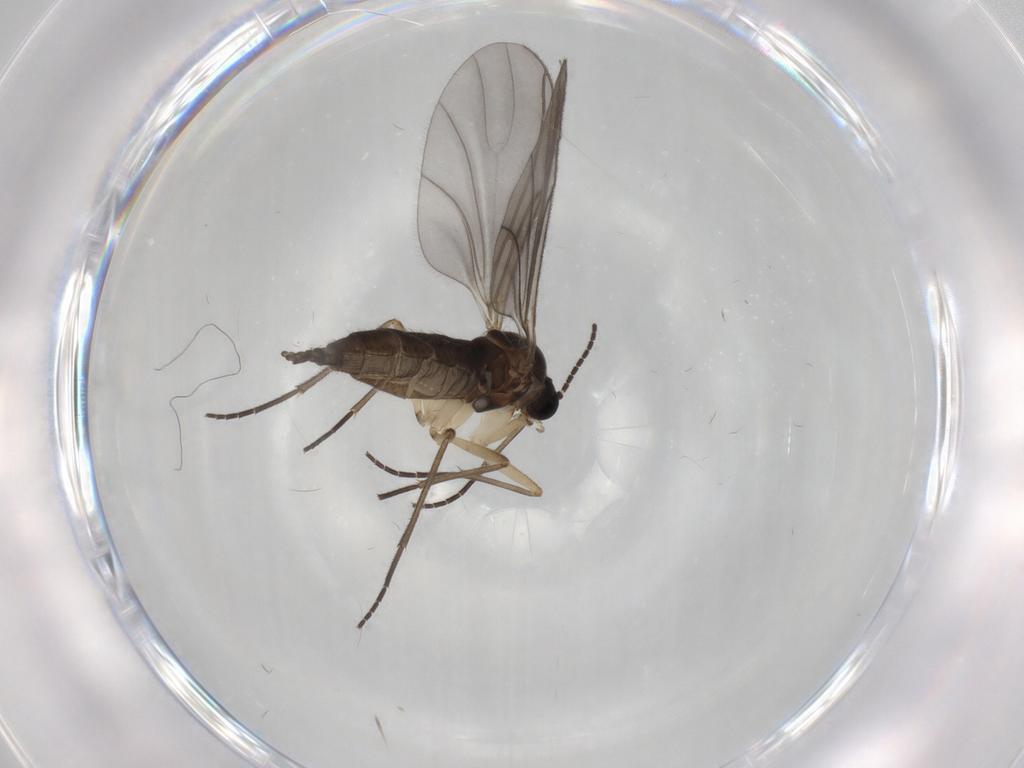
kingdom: Animalia
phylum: Arthropoda
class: Insecta
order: Diptera
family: Sciaridae
